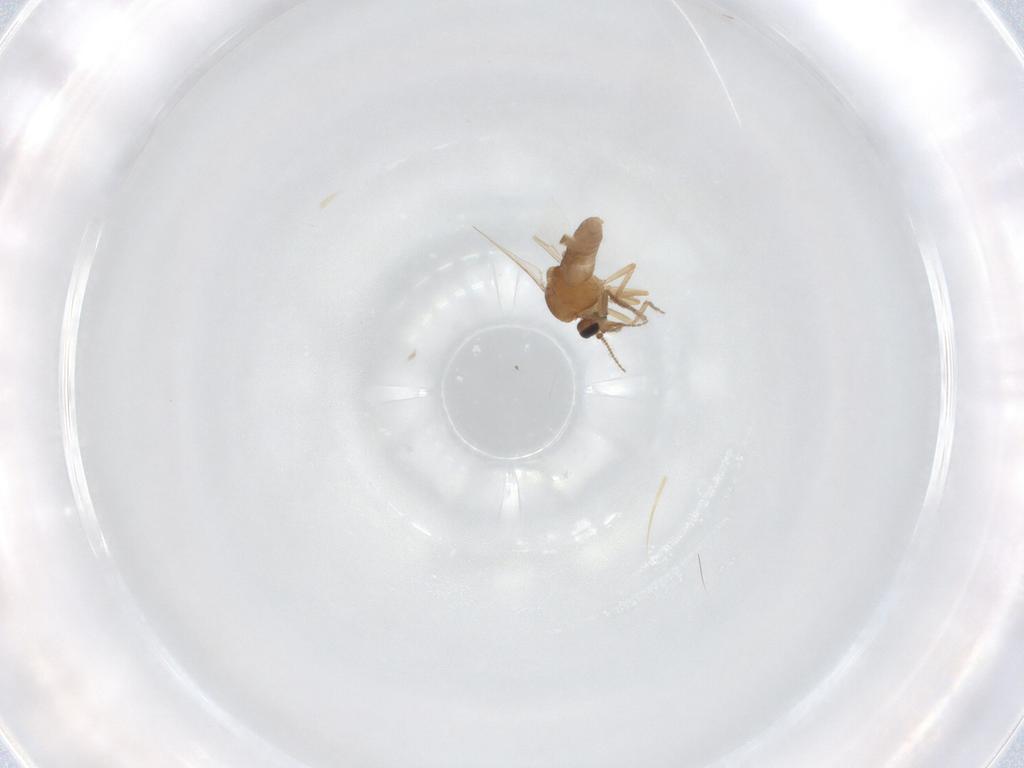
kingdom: Animalia
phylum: Arthropoda
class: Insecta
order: Diptera
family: Ceratopogonidae
